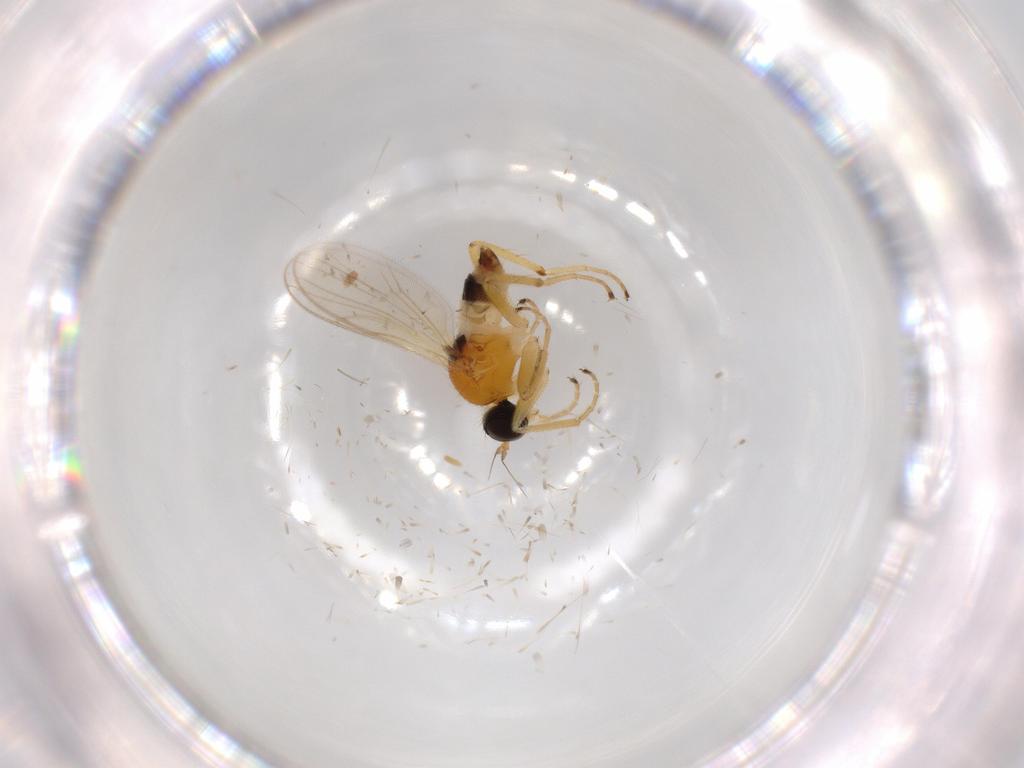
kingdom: Animalia
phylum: Arthropoda
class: Insecta
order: Diptera
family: Hybotidae
